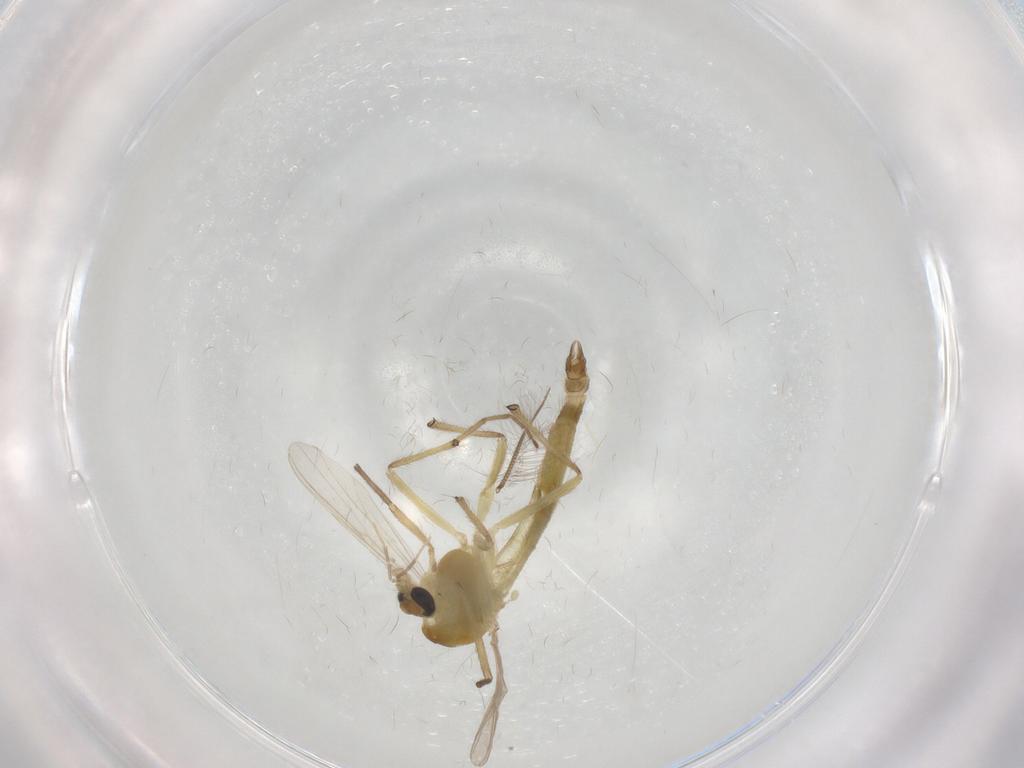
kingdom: Animalia
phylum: Arthropoda
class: Insecta
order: Diptera
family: Chironomidae
